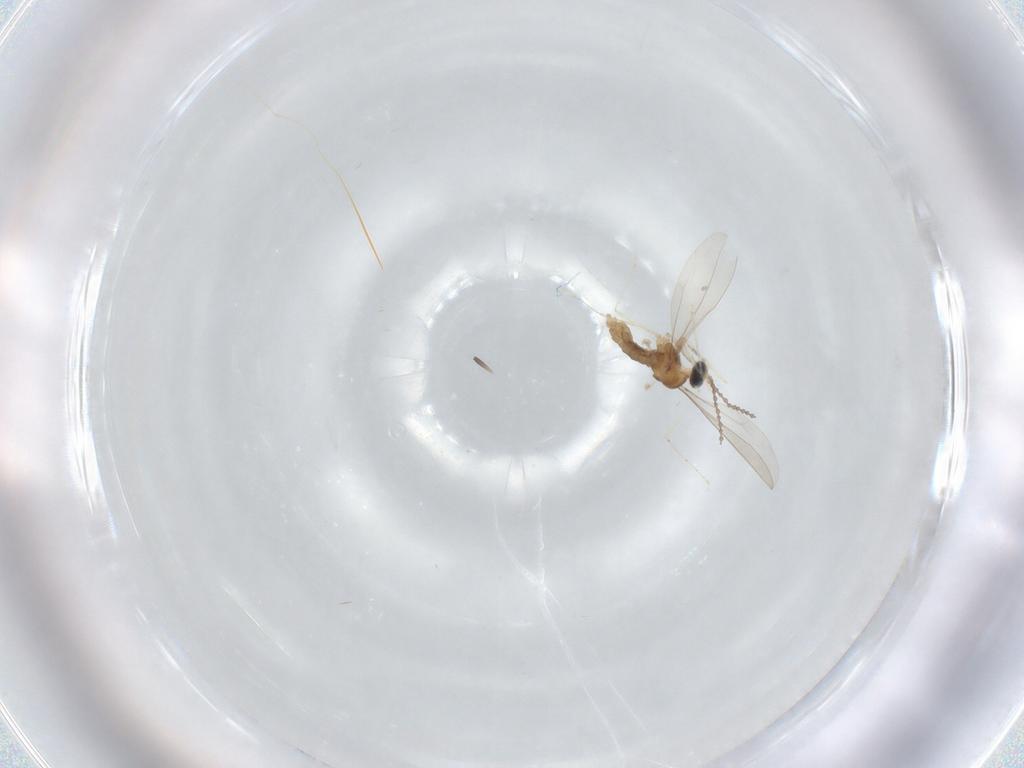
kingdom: Animalia
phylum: Arthropoda
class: Insecta
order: Diptera
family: Cecidomyiidae
